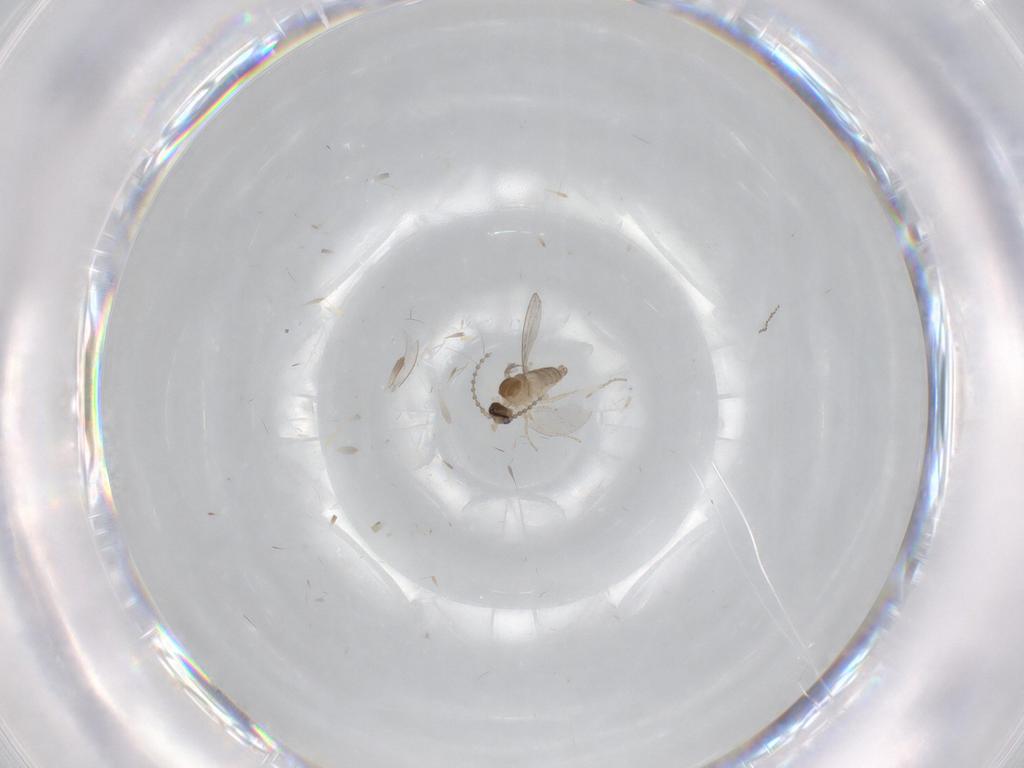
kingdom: Animalia
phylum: Arthropoda
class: Insecta
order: Diptera
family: Cecidomyiidae
